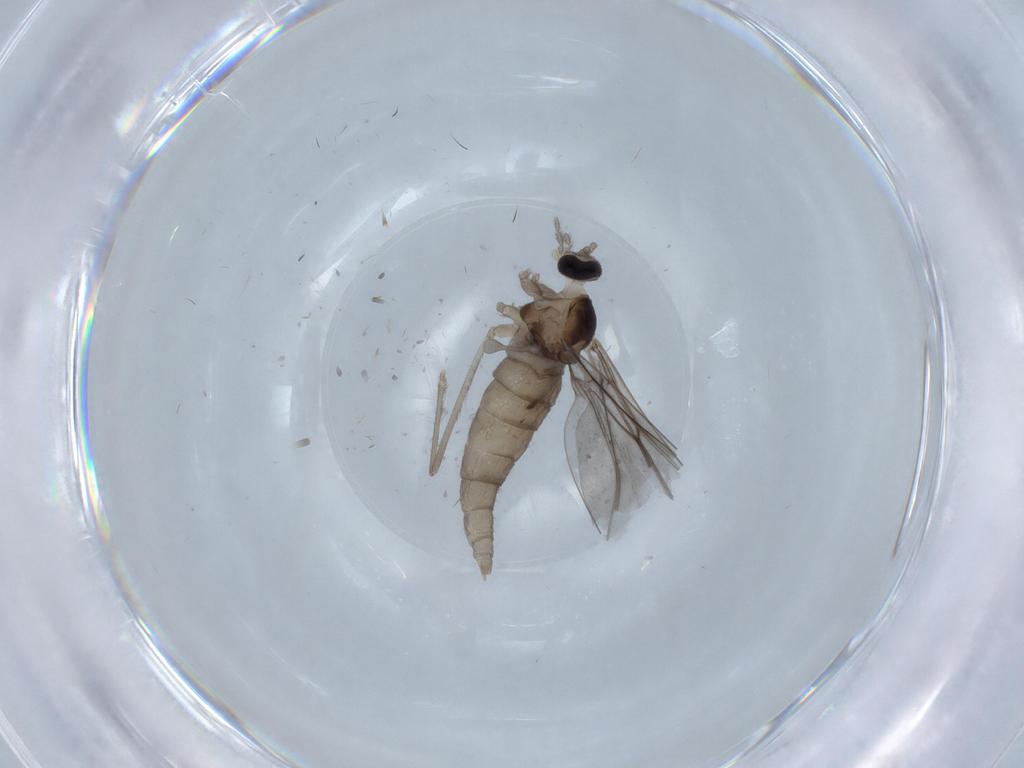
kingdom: Animalia
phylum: Arthropoda
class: Insecta
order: Diptera
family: Cecidomyiidae
